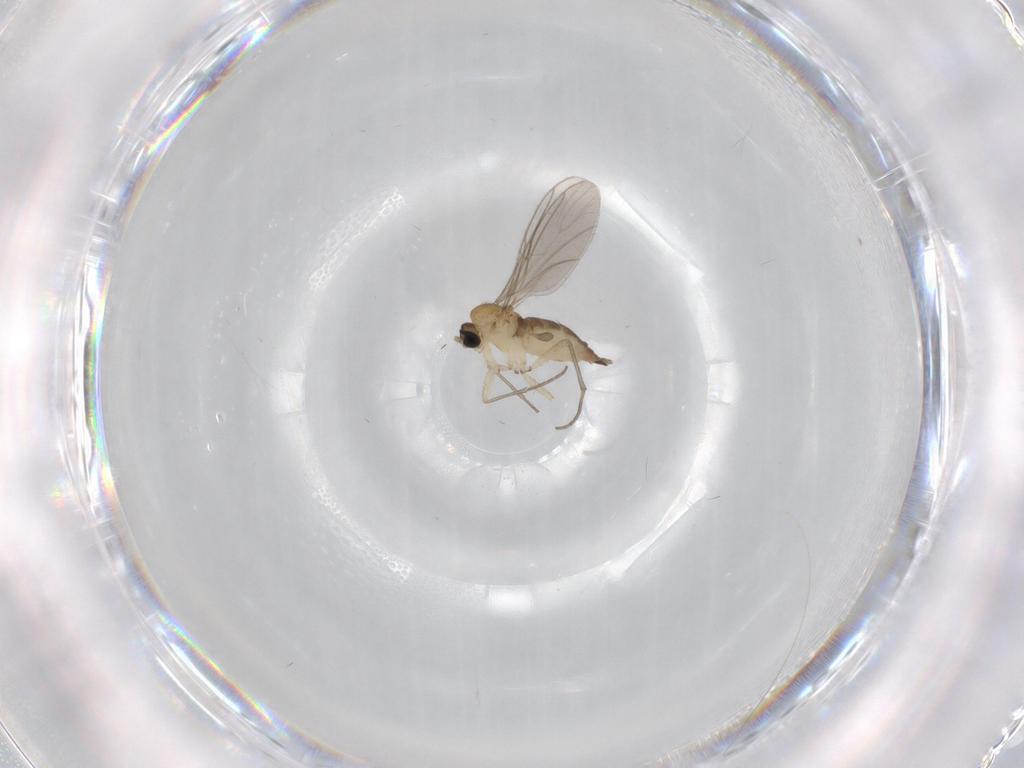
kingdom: Animalia
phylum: Arthropoda
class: Insecta
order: Diptera
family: Sciaridae
